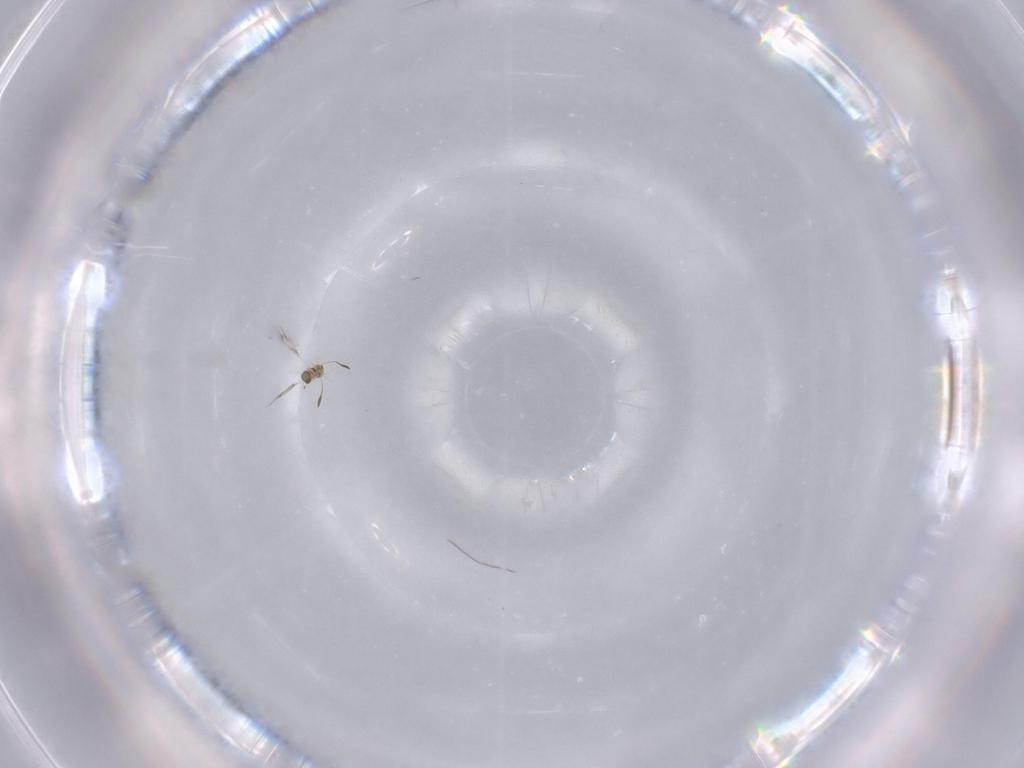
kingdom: Animalia
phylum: Arthropoda
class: Insecta
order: Hymenoptera
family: Mymarommatidae
